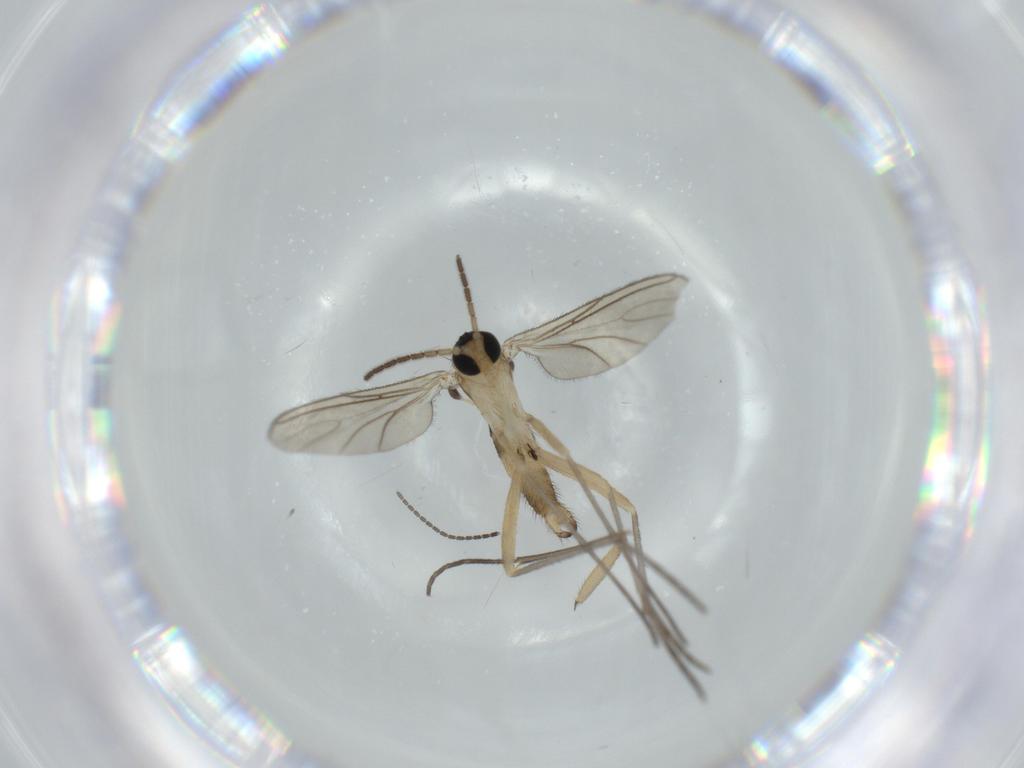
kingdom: Animalia
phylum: Arthropoda
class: Insecta
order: Diptera
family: Sciaridae
